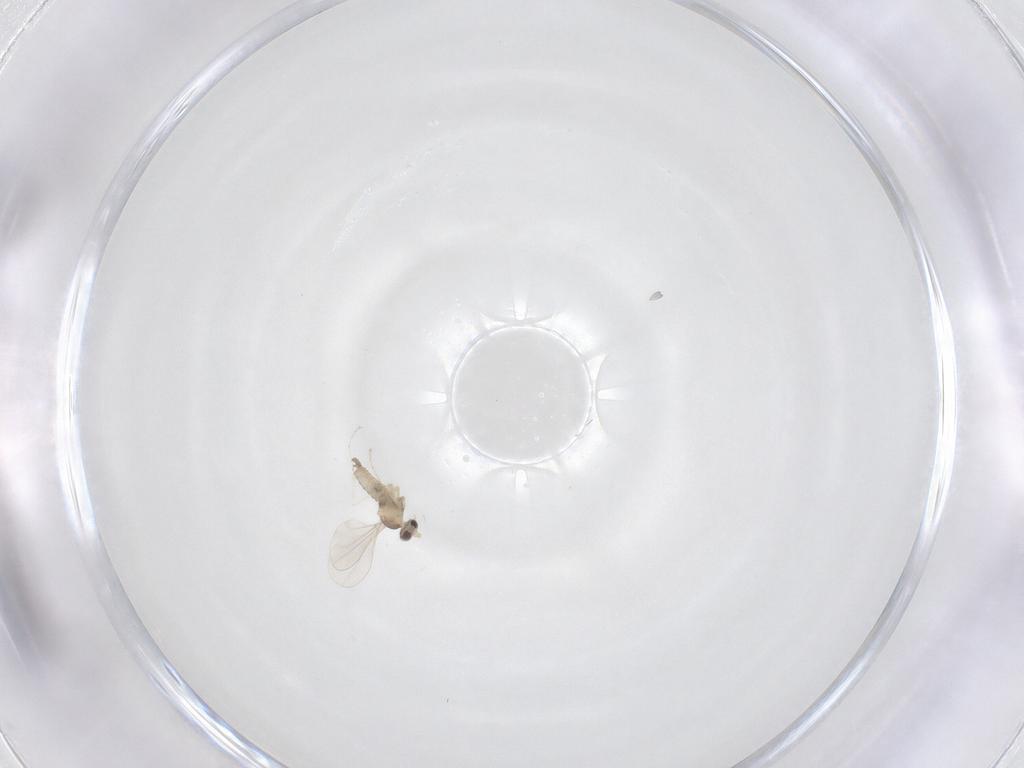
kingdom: Animalia
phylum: Arthropoda
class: Insecta
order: Diptera
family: Cecidomyiidae
